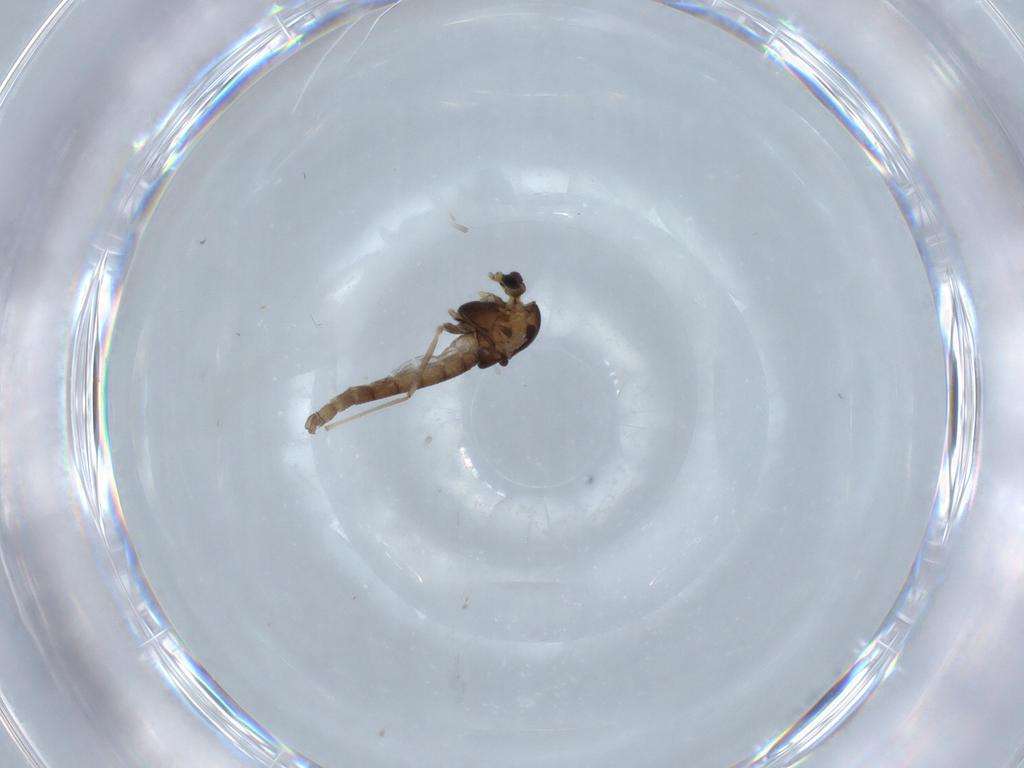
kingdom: Animalia
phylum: Arthropoda
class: Insecta
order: Diptera
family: Chironomidae
